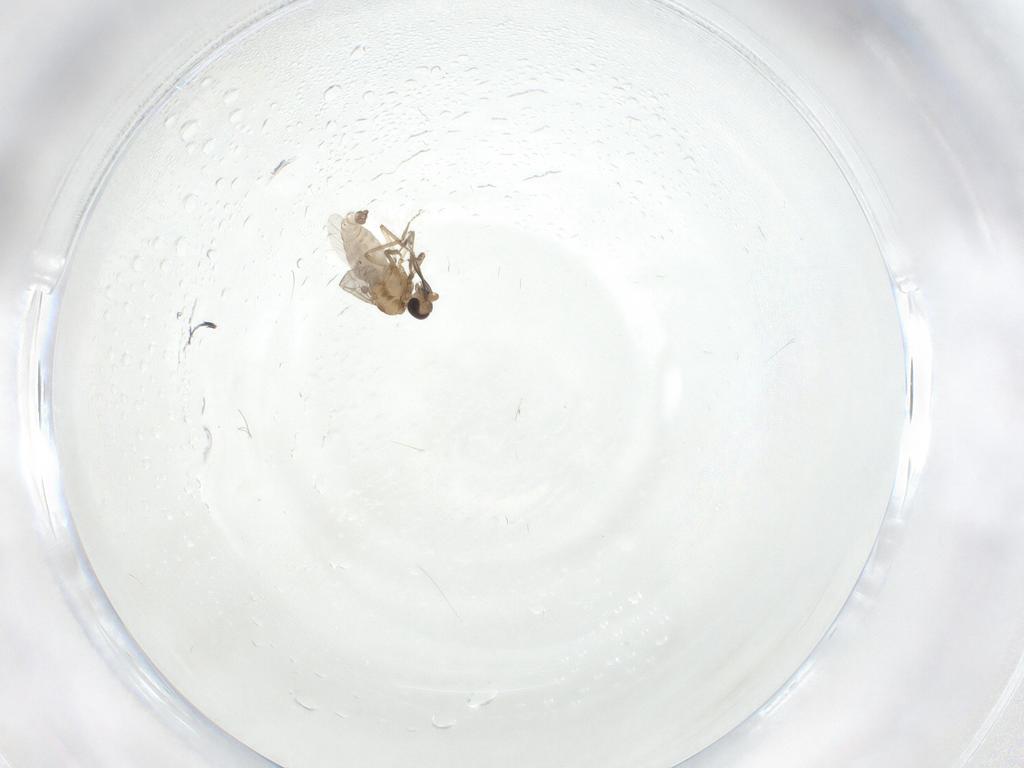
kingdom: Animalia
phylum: Arthropoda
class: Insecta
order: Diptera
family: Ceratopogonidae
